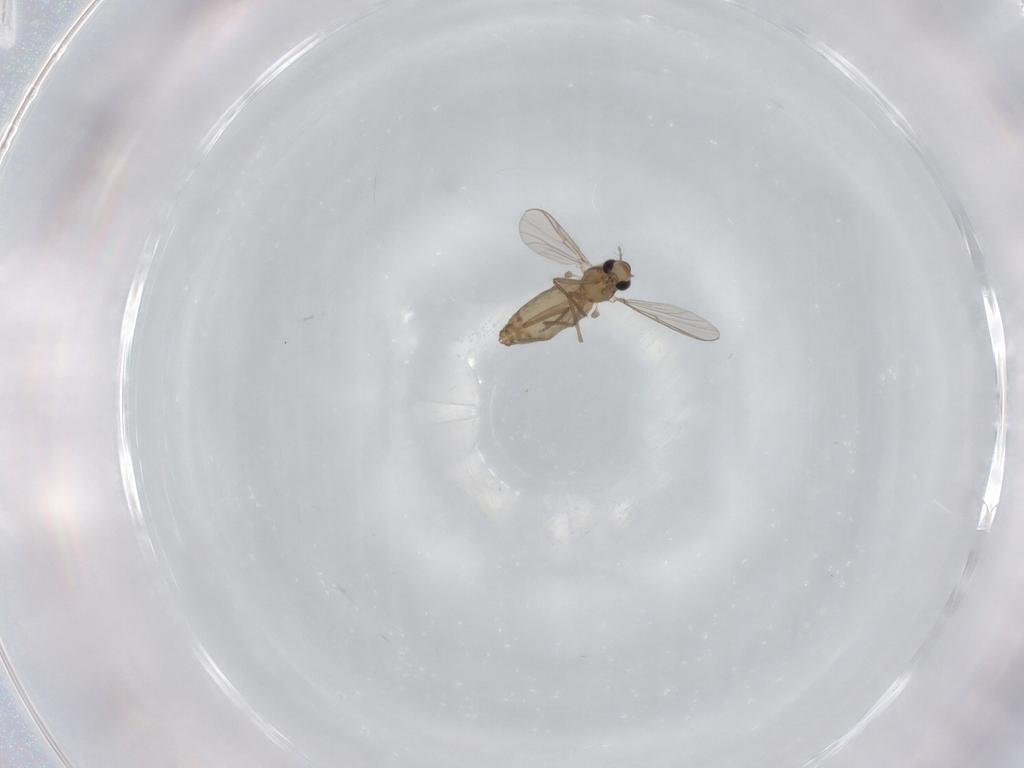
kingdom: Animalia
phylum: Arthropoda
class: Insecta
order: Diptera
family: Chironomidae
